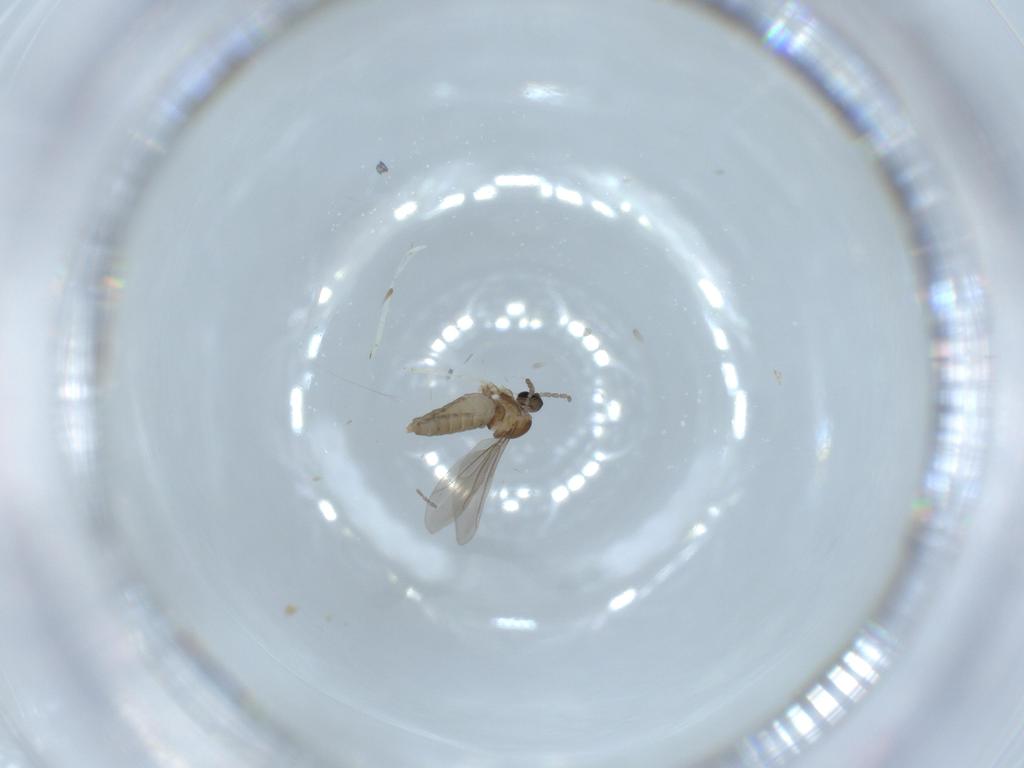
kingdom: Animalia
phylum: Arthropoda
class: Insecta
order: Diptera
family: Cecidomyiidae
